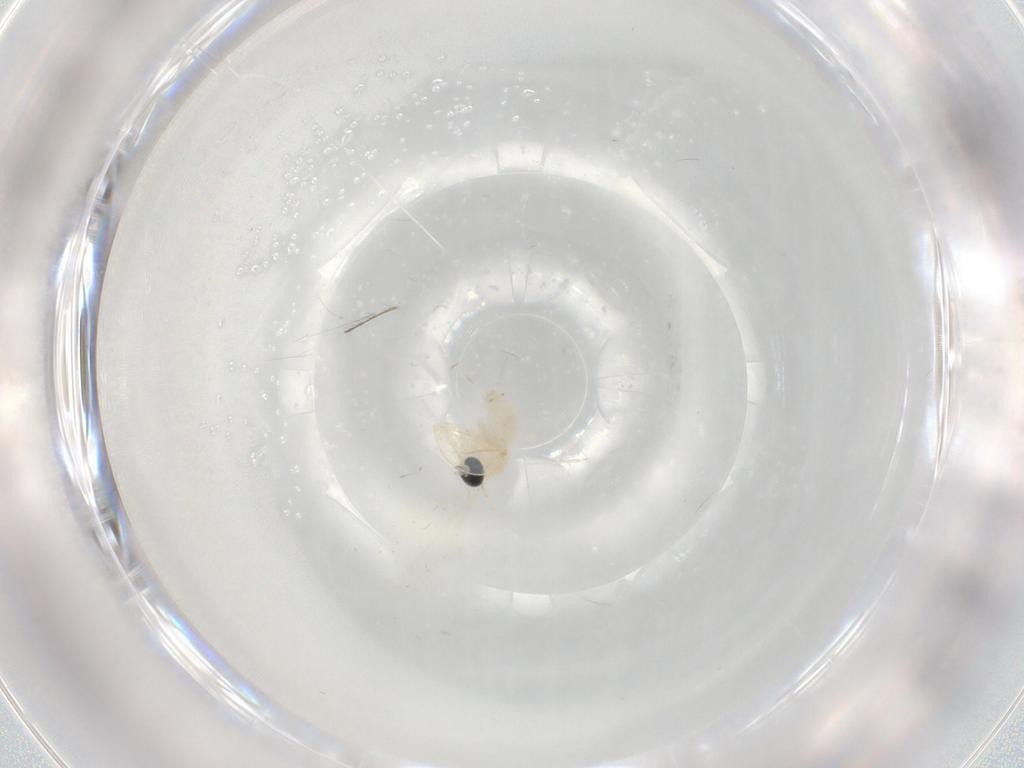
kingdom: Animalia
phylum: Arthropoda
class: Insecta
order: Diptera
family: Cecidomyiidae
